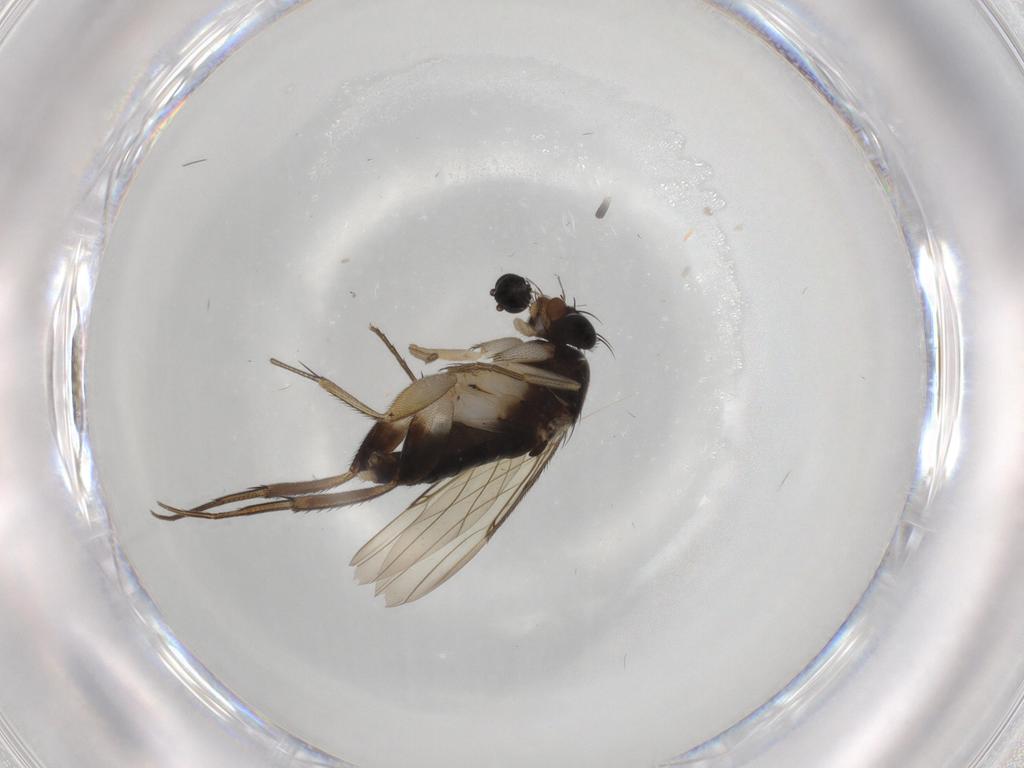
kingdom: Animalia
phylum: Arthropoda
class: Insecta
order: Diptera
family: Phoridae
